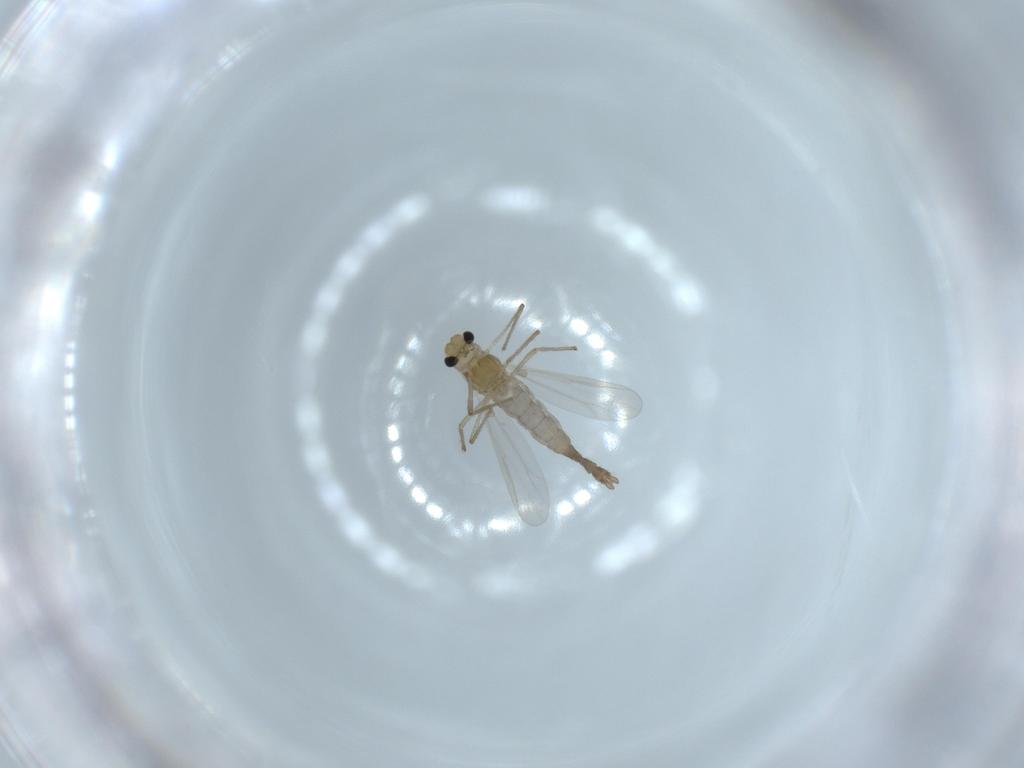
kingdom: Animalia
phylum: Arthropoda
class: Insecta
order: Diptera
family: Chironomidae
